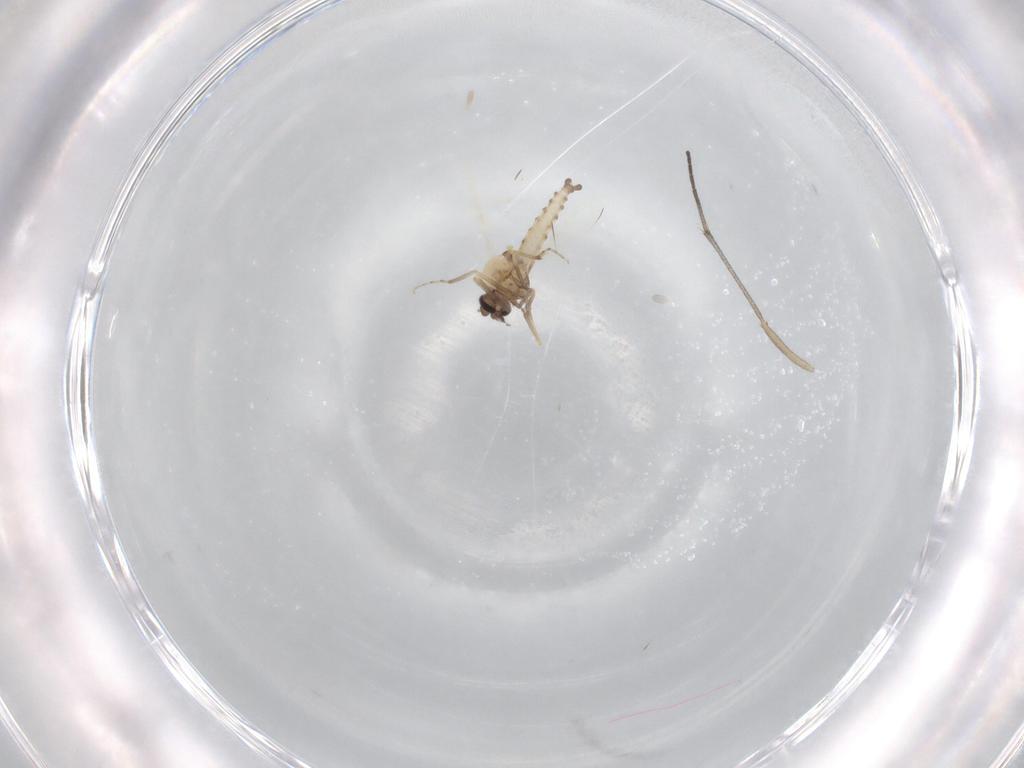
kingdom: Animalia
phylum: Arthropoda
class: Insecta
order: Diptera
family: Sciaridae
